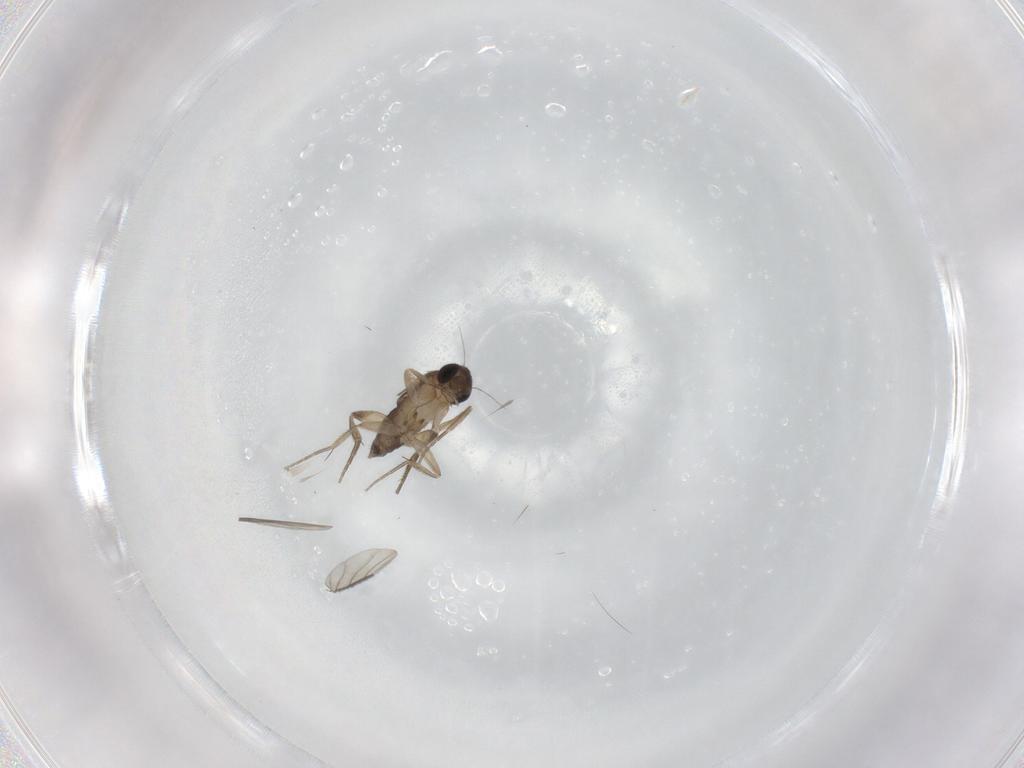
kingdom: Animalia
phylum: Arthropoda
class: Insecta
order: Diptera
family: Phoridae
